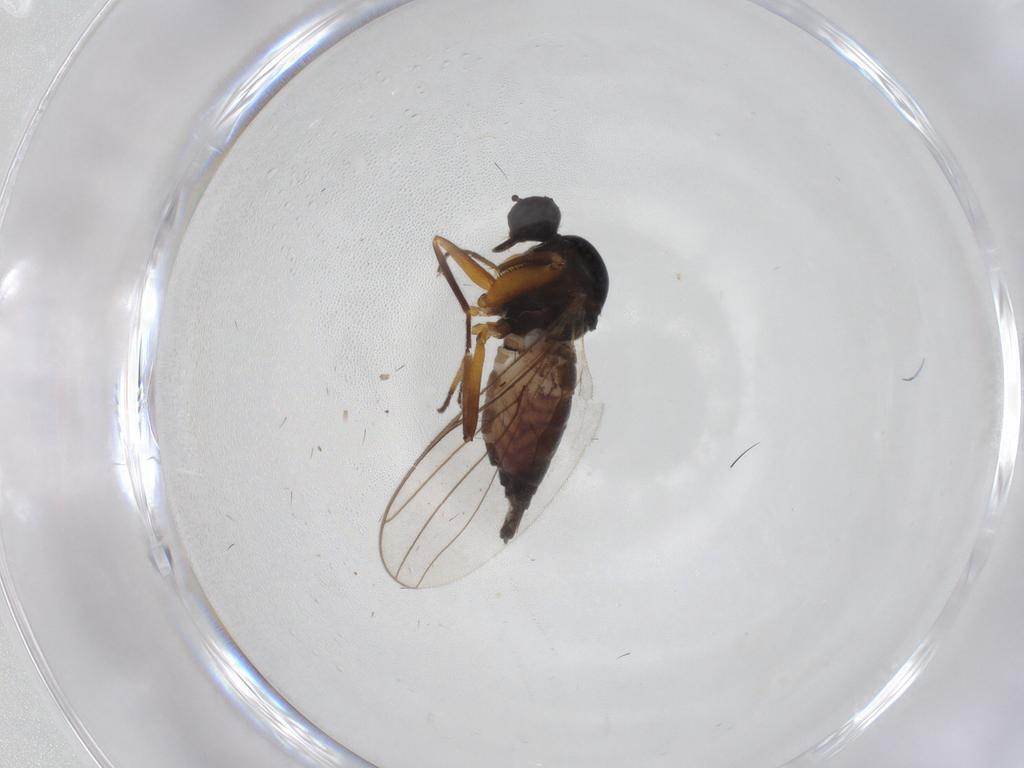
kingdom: Animalia
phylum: Arthropoda
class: Insecta
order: Diptera
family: Hybotidae
